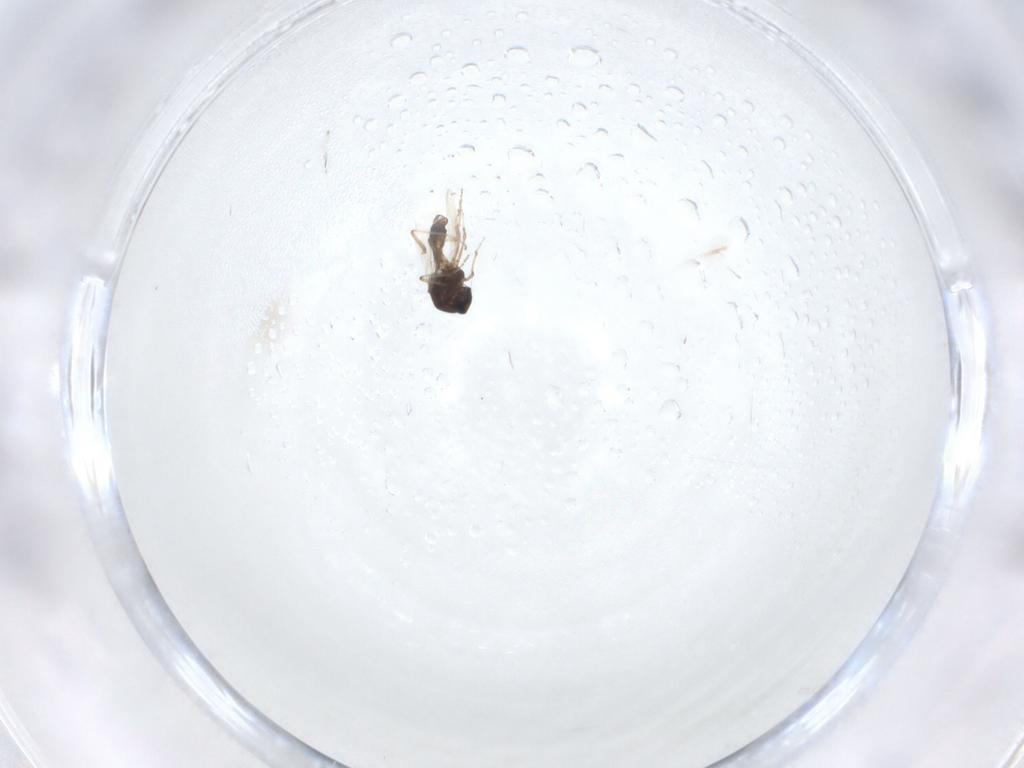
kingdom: Animalia
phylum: Arthropoda
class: Insecta
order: Diptera
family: Ceratopogonidae
